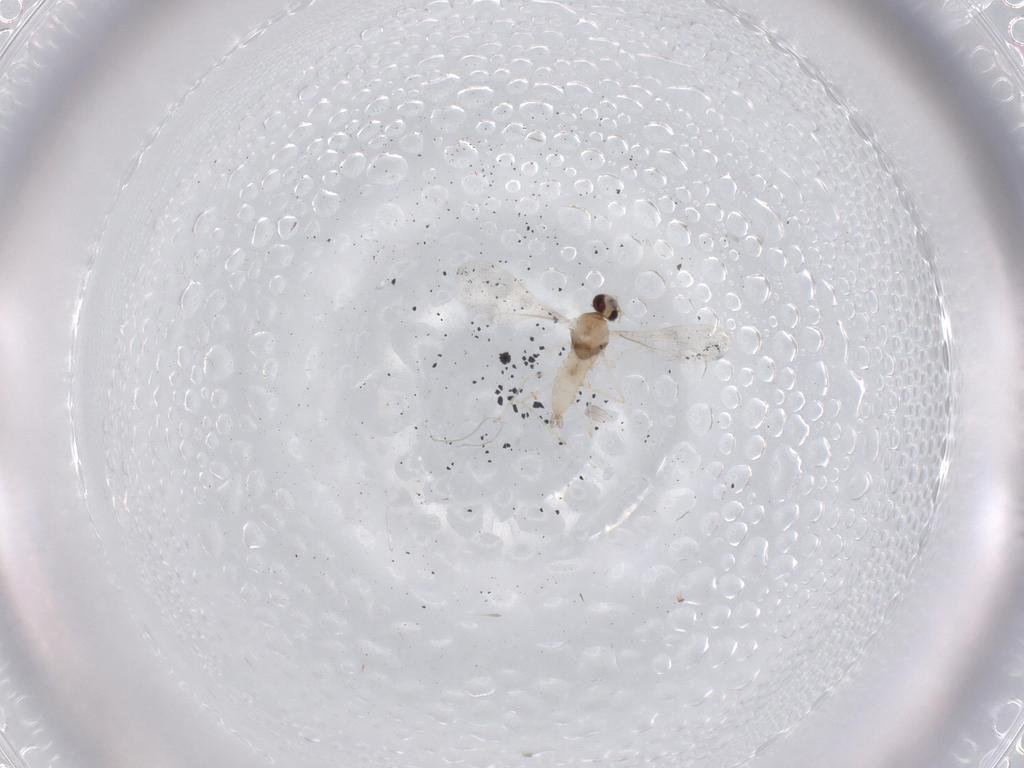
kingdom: Animalia
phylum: Arthropoda
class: Insecta
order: Diptera
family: Cecidomyiidae
